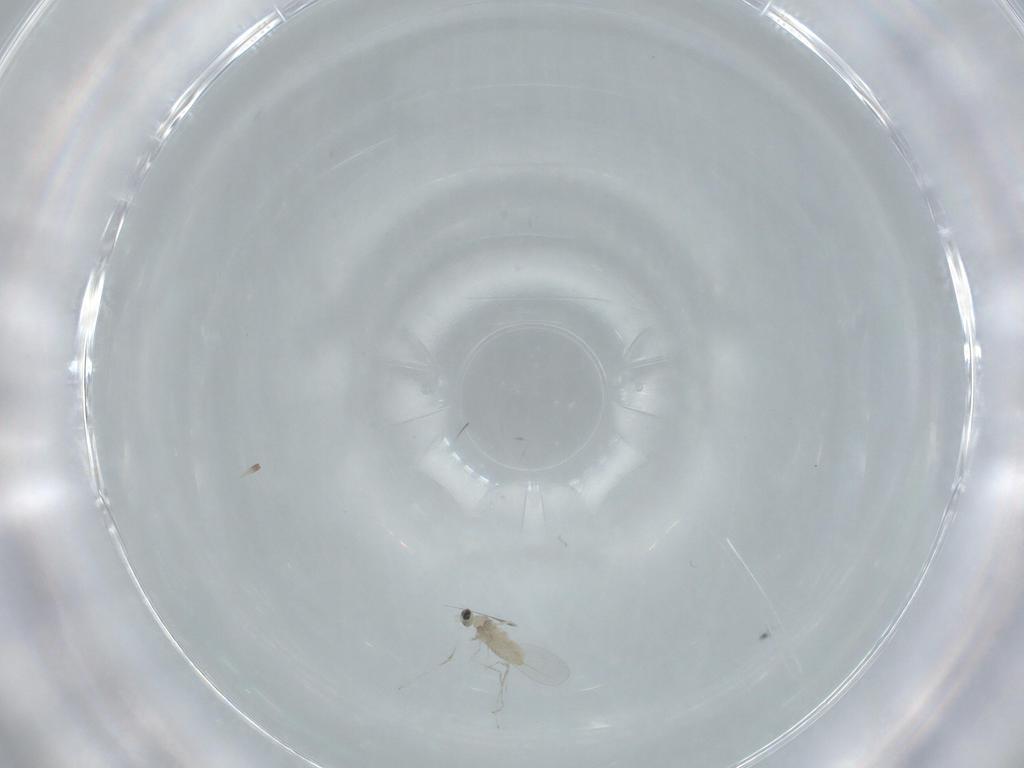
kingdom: Animalia
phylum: Arthropoda
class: Insecta
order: Diptera
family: Cecidomyiidae
